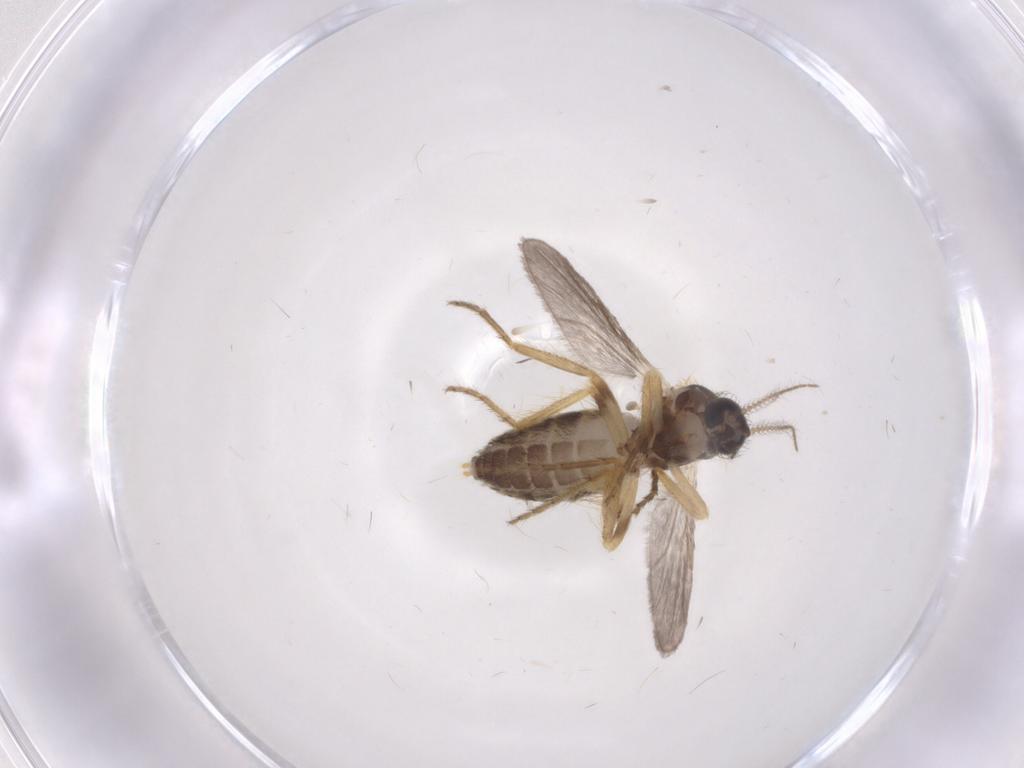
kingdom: Animalia
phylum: Arthropoda
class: Insecta
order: Diptera
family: Ceratopogonidae
